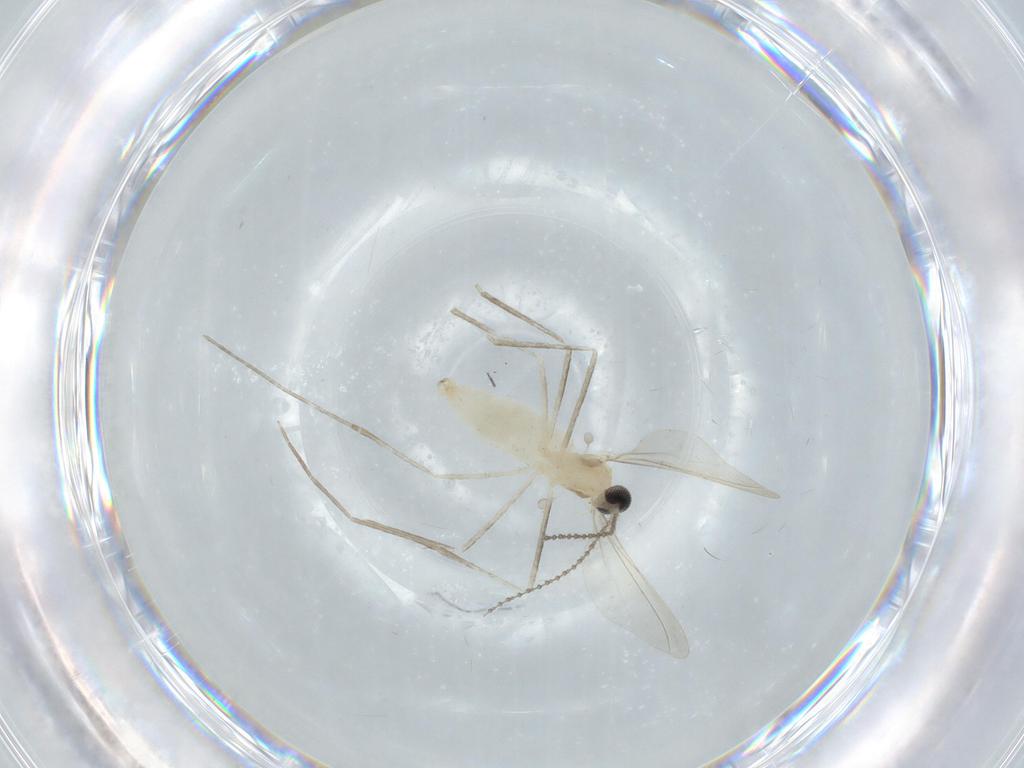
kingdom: Animalia
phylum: Arthropoda
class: Insecta
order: Diptera
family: Cecidomyiidae
